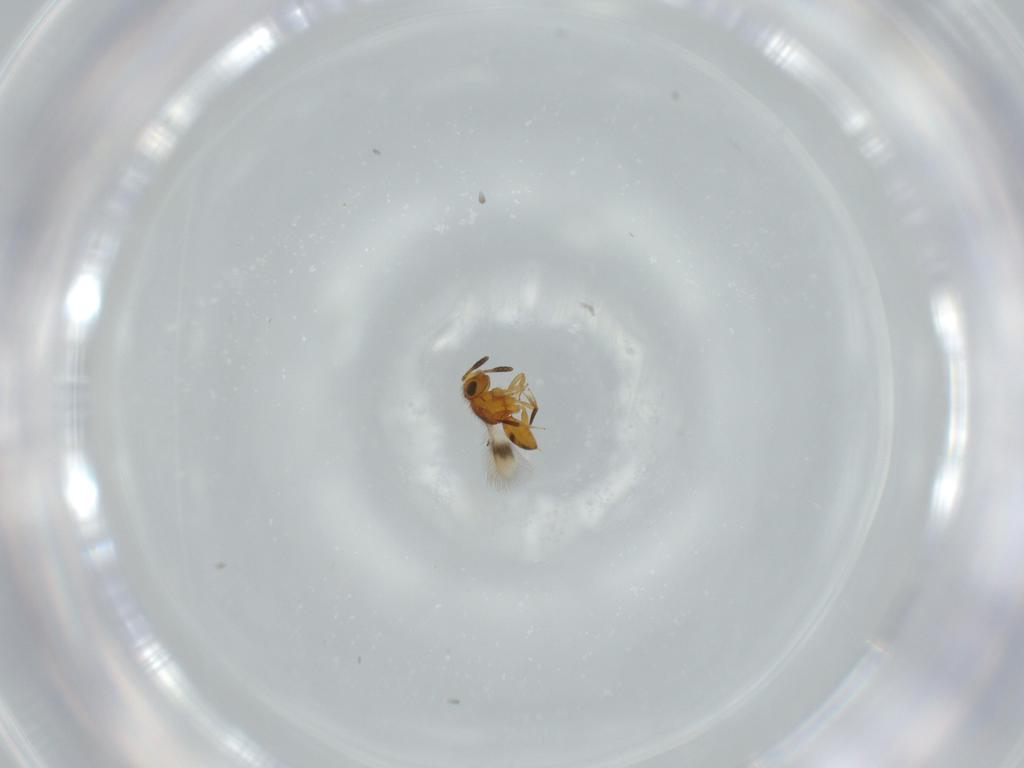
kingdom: Animalia
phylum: Arthropoda
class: Insecta
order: Hymenoptera
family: Scelionidae
